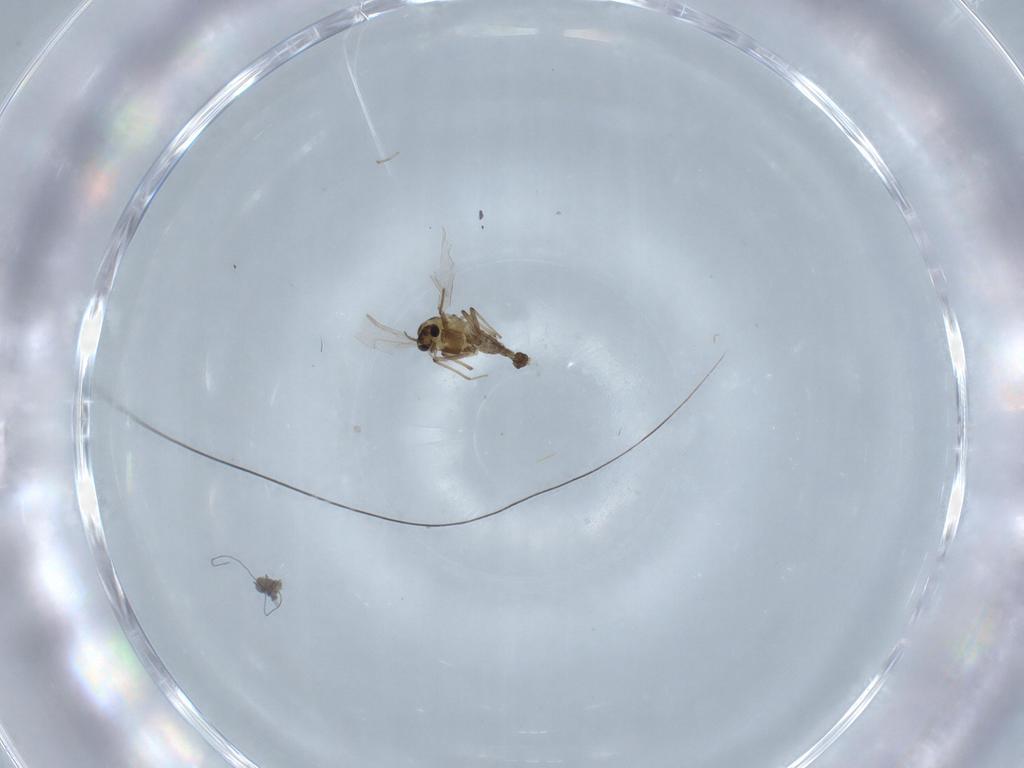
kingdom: Animalia
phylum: Arthropoda
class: Insecta
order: Diptera
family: Chironomidae
